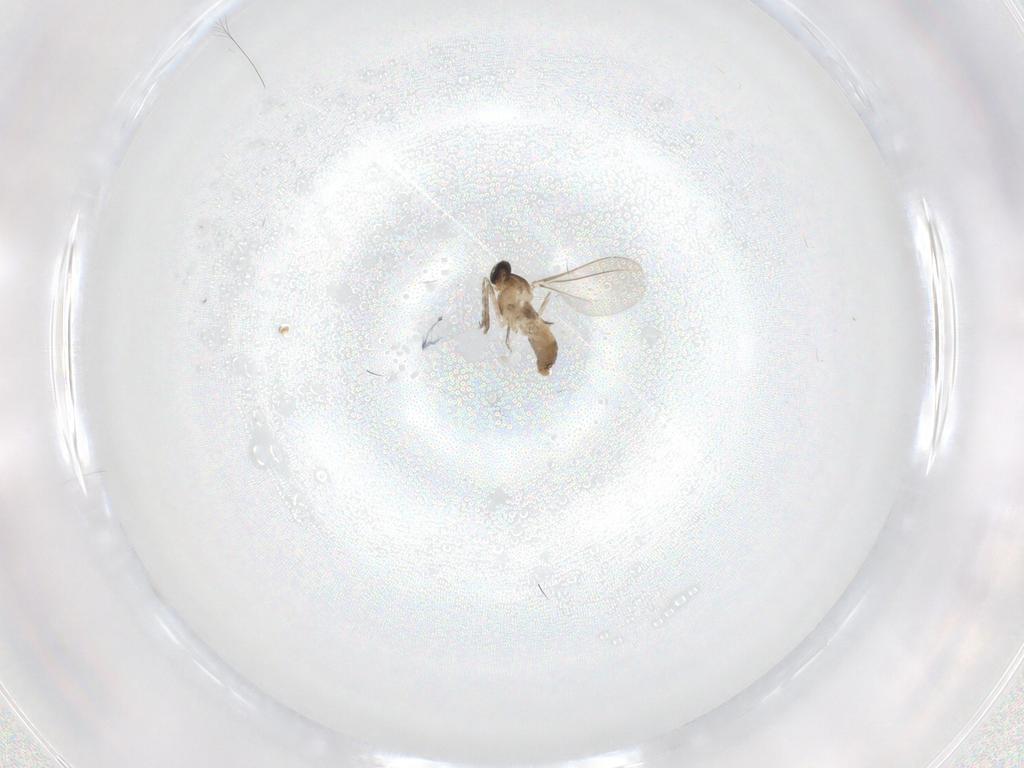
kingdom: Animalia
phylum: Arthropoda
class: Insecta
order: Diptera
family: Cecidomyiidae
